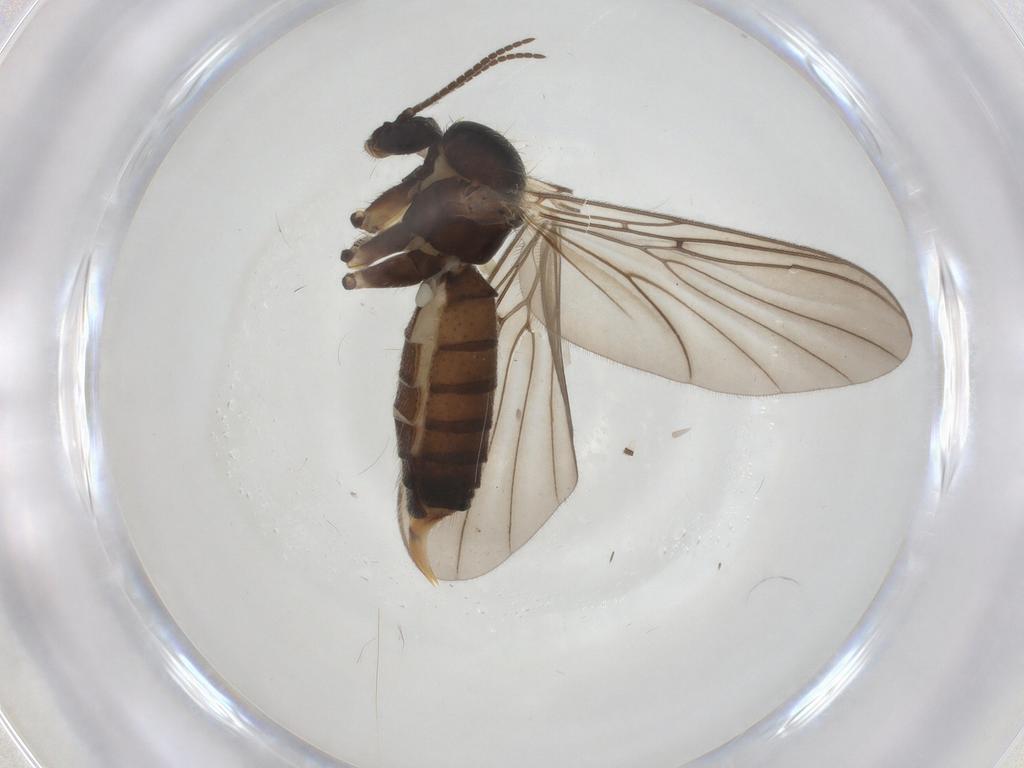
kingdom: Animalia
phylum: Arthropoda
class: Insecta
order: Diptera
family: Mycetophilidae
